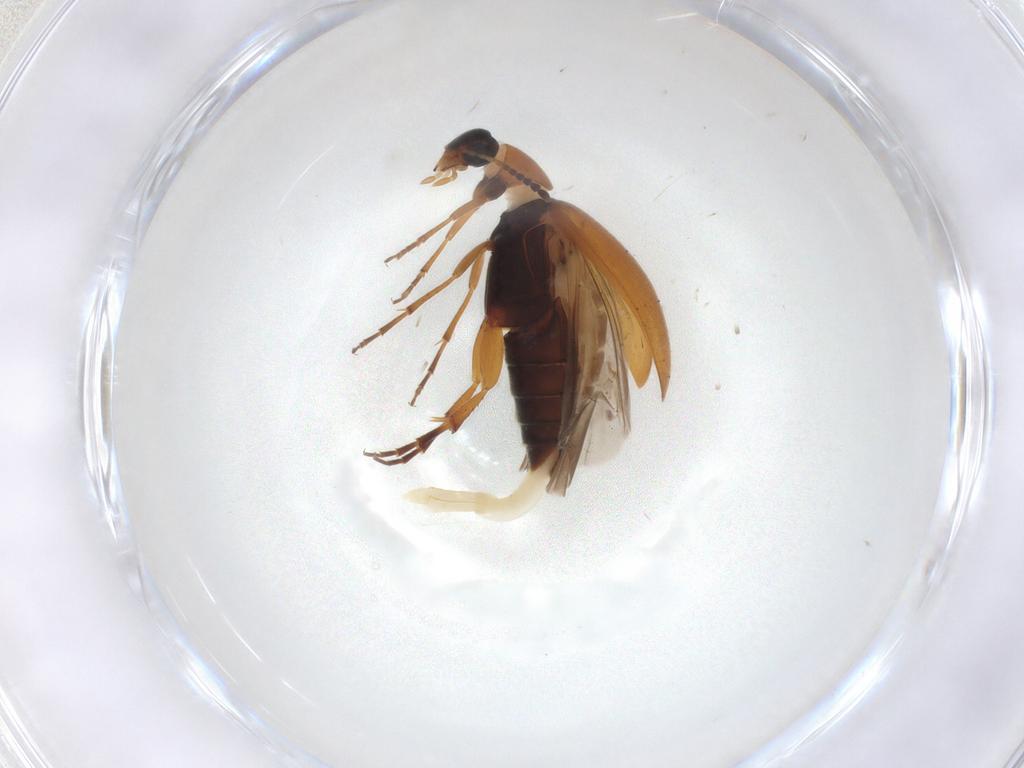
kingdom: Animalia
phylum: Arthropoda
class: Insecta
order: Coleoptera
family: Scraptiidae
